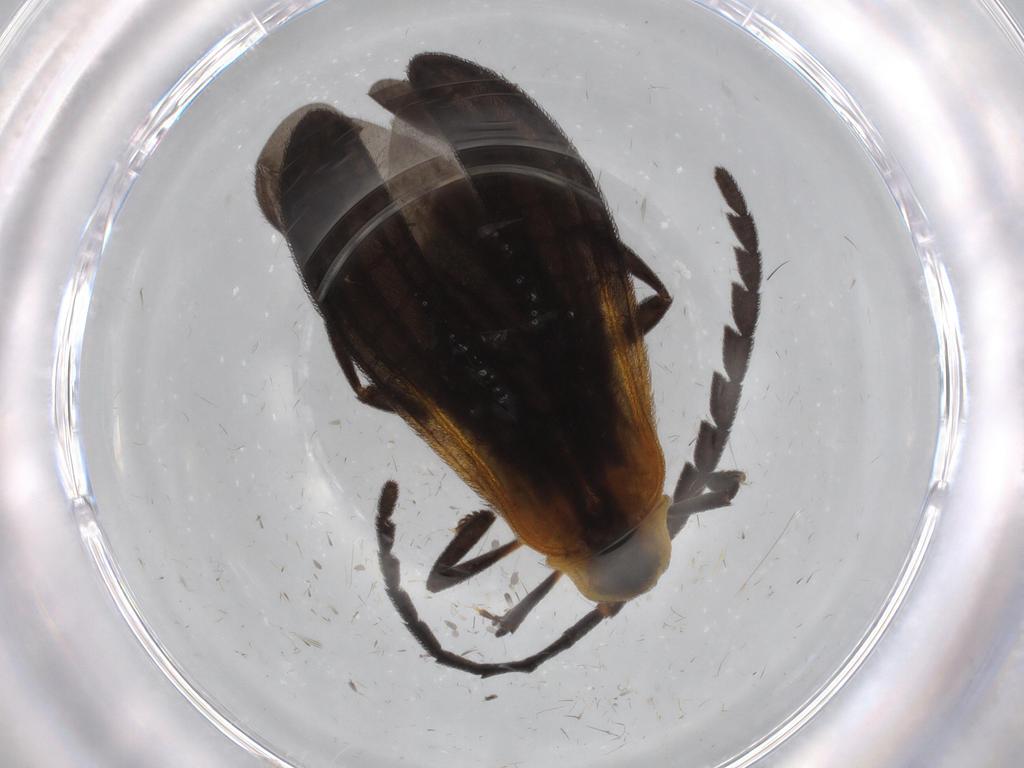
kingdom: Animalia
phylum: Arthropoda
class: Insecta
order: Coleoptera
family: Lycidae
